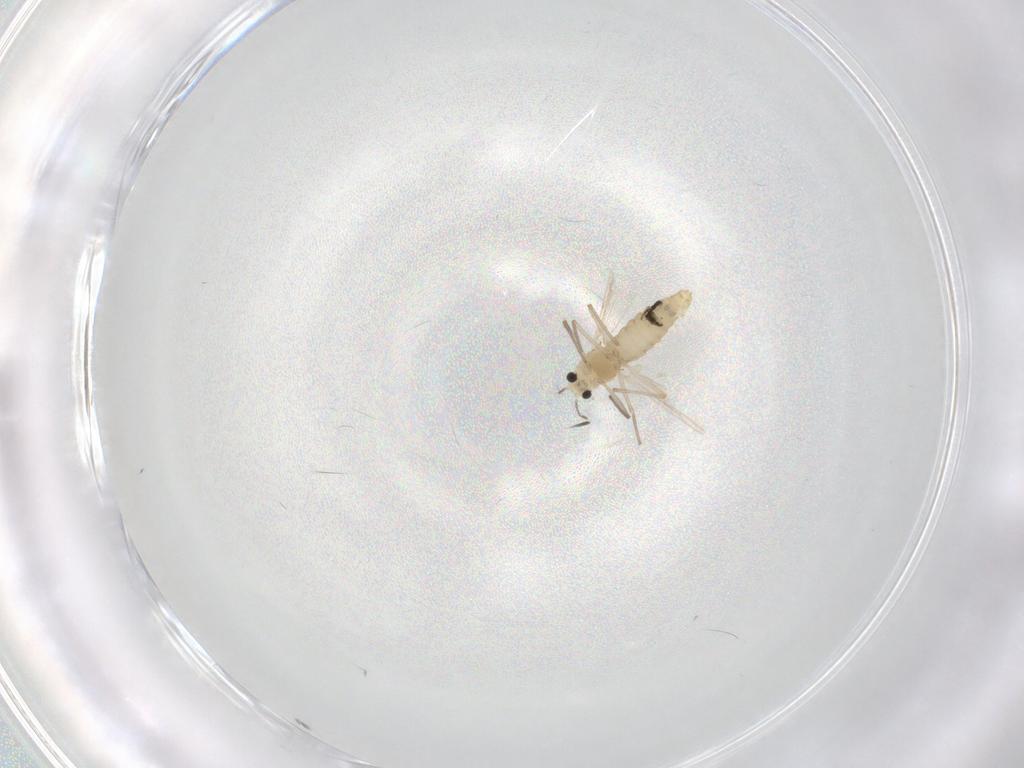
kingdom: Animalia
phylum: Arthropoda
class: Insecta
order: Diptera
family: Chironomidae
